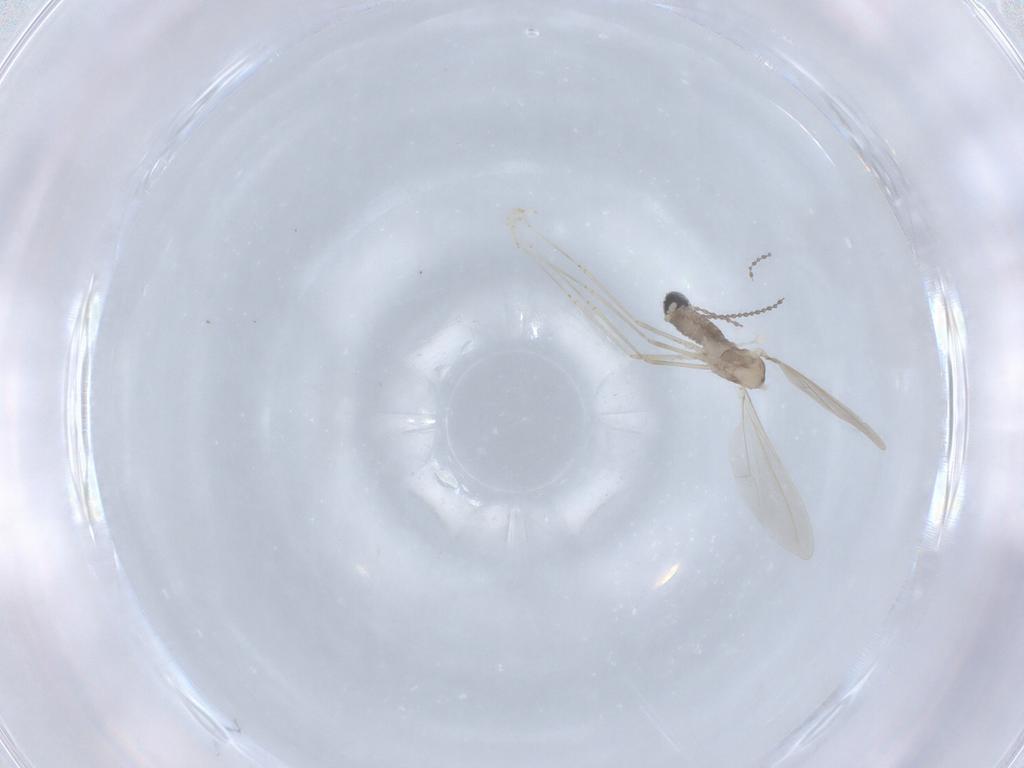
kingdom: Animalia
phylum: Arthropoda
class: Insecta
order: Diptera
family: Cecidomyiidae
